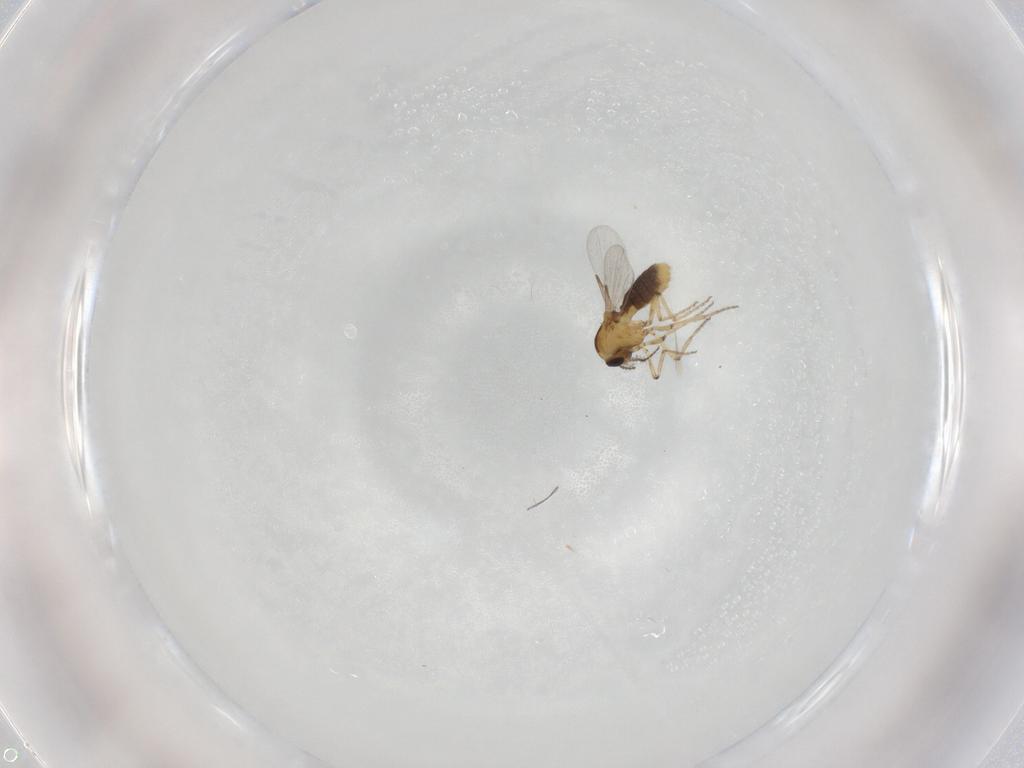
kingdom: Animalia
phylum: Arthropoda
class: Insecta
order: Diptera
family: Ceratopogonidae
